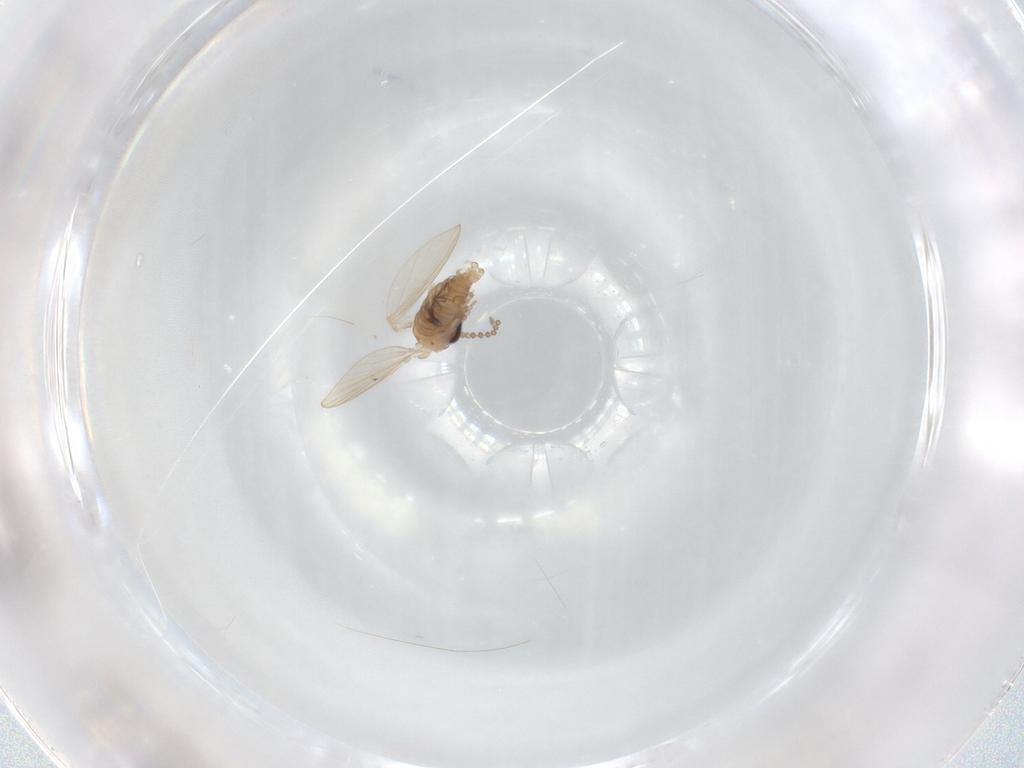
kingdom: Animalia
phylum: Arthropoda
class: Insecta
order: Diptera
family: Psychodidae
